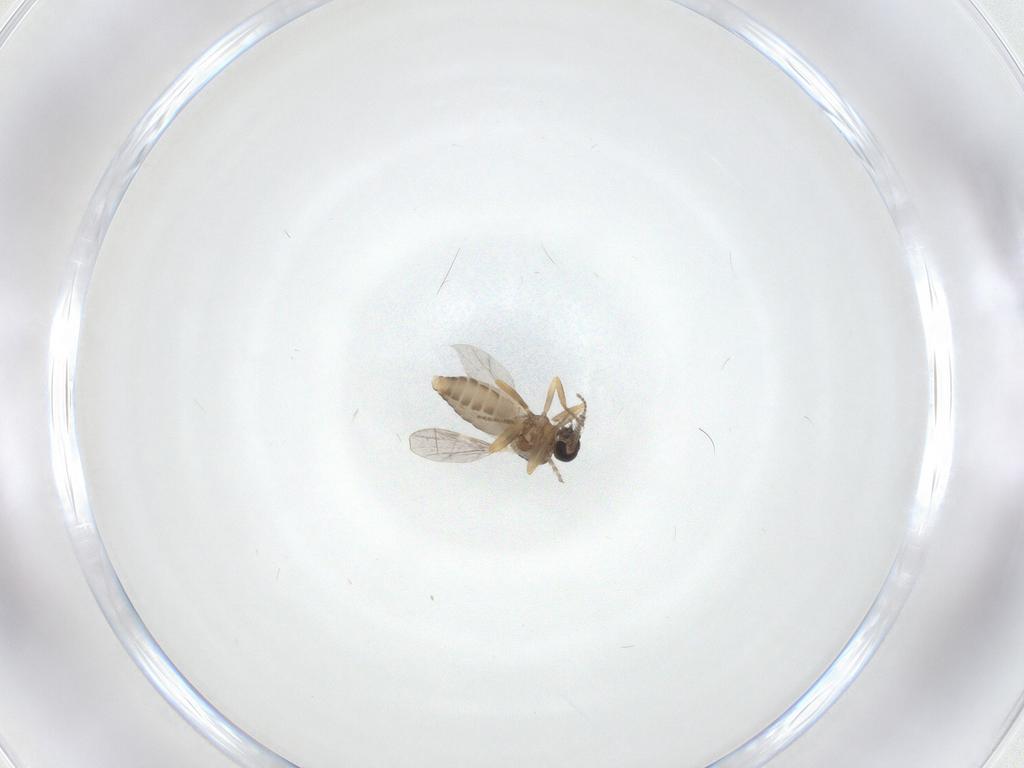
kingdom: Animalia
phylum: Arthropoda
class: Insecta
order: Diptera
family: Ceratopogonidae
